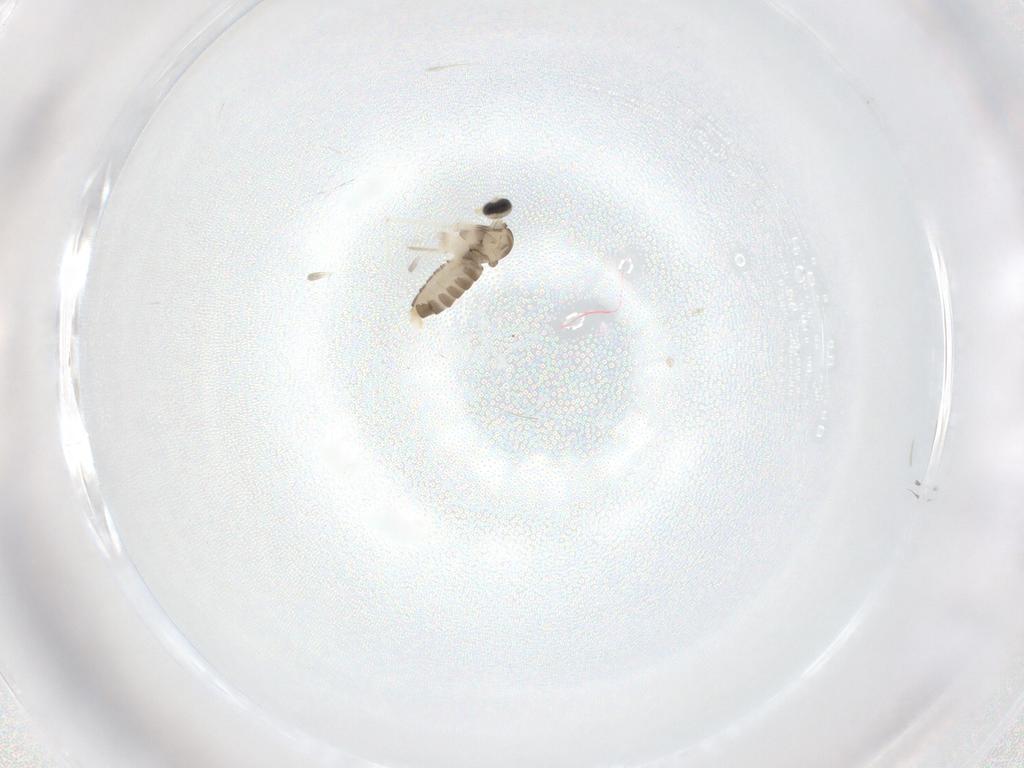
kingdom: Animalia
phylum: Arthropoda
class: Insecta
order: Diptera
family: Cecidomyiidae
